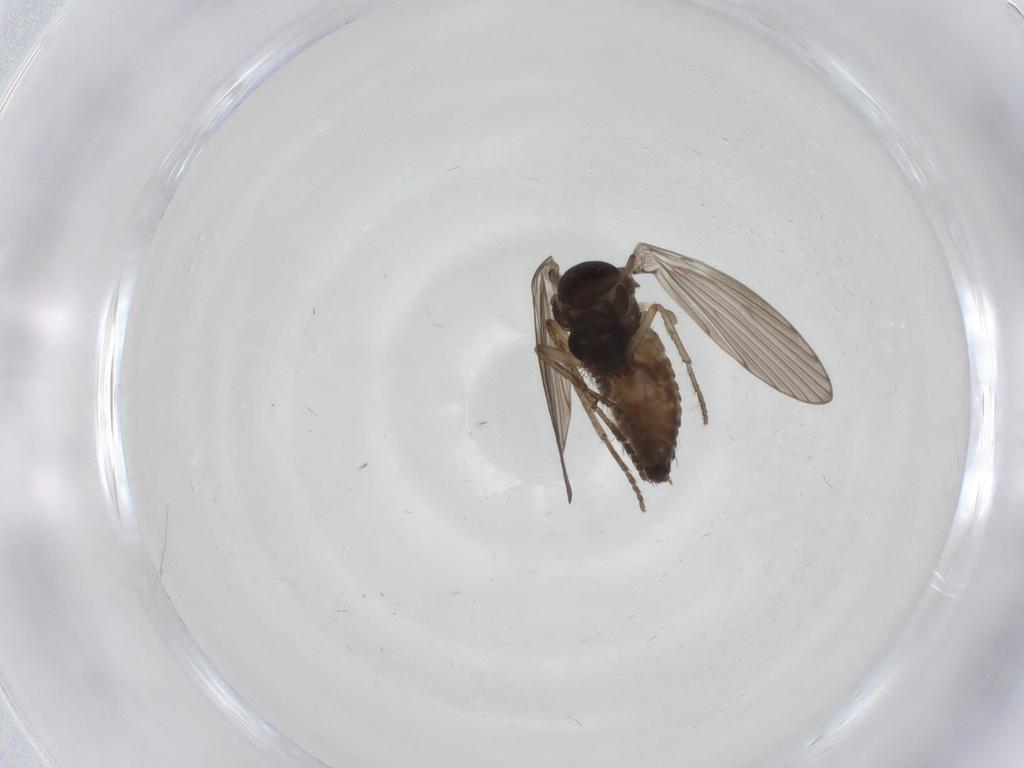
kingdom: Animalia
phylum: Arthropoda
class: Insecta
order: Diptera
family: Psychodidae
